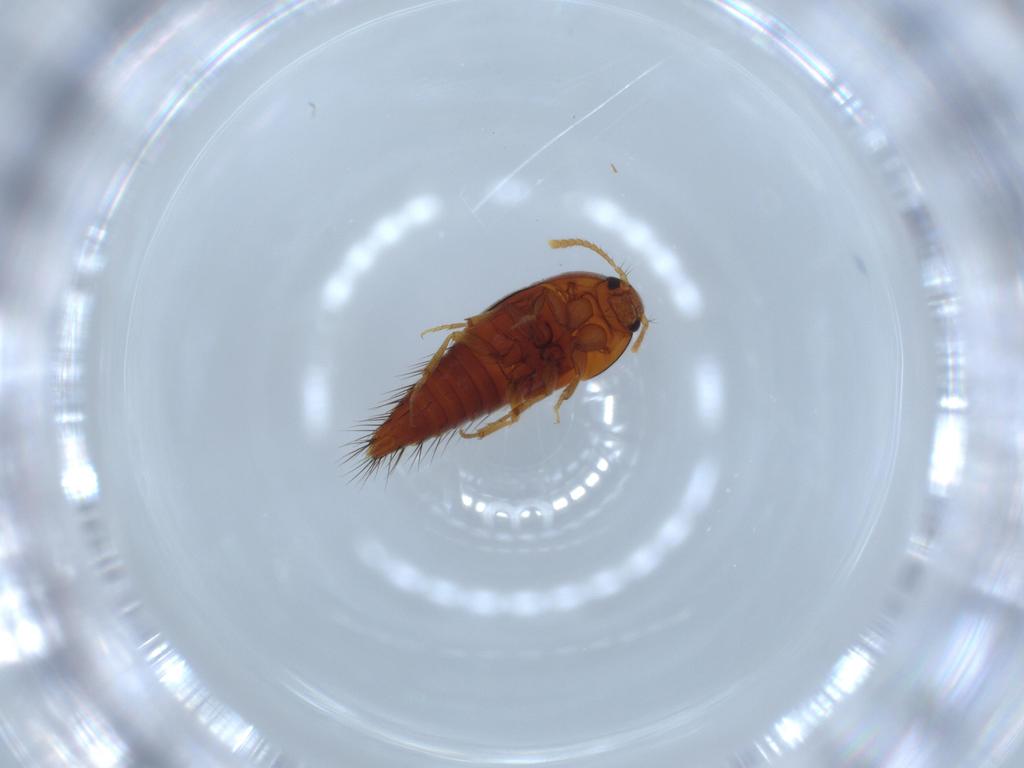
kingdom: Animalia
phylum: Arthropoda
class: Insecta
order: Coleoptera
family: Staphylinidae
